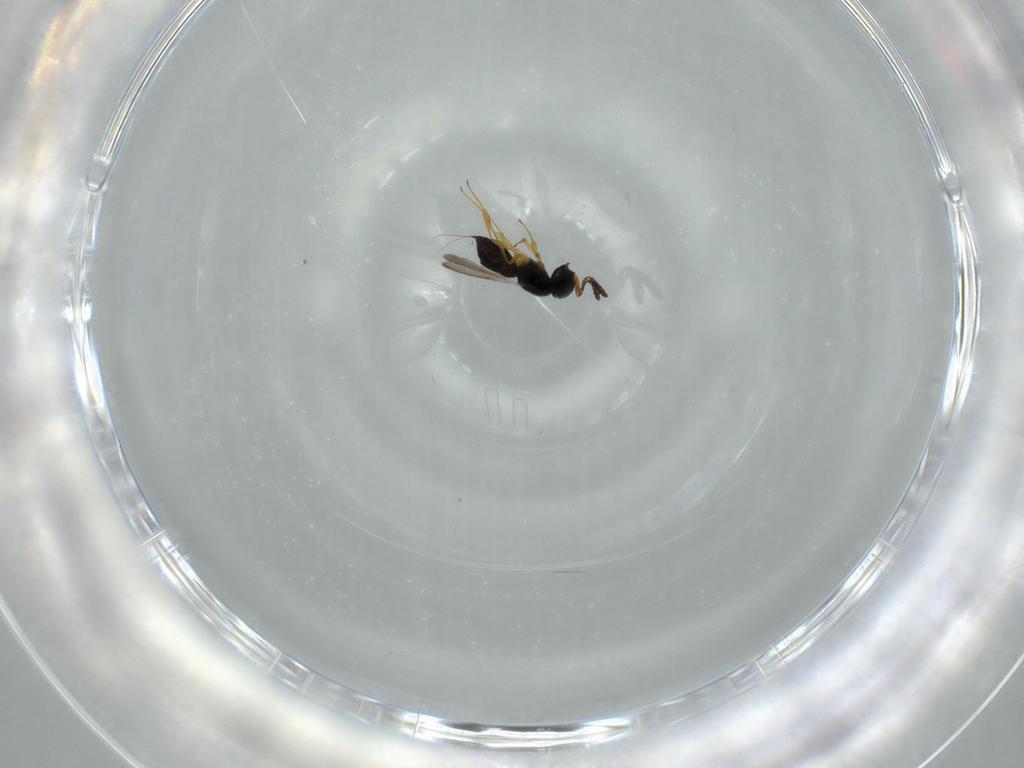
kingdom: Animalia
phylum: Arthropoda
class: Insecta
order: Hymenoptera
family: Scelionidae
